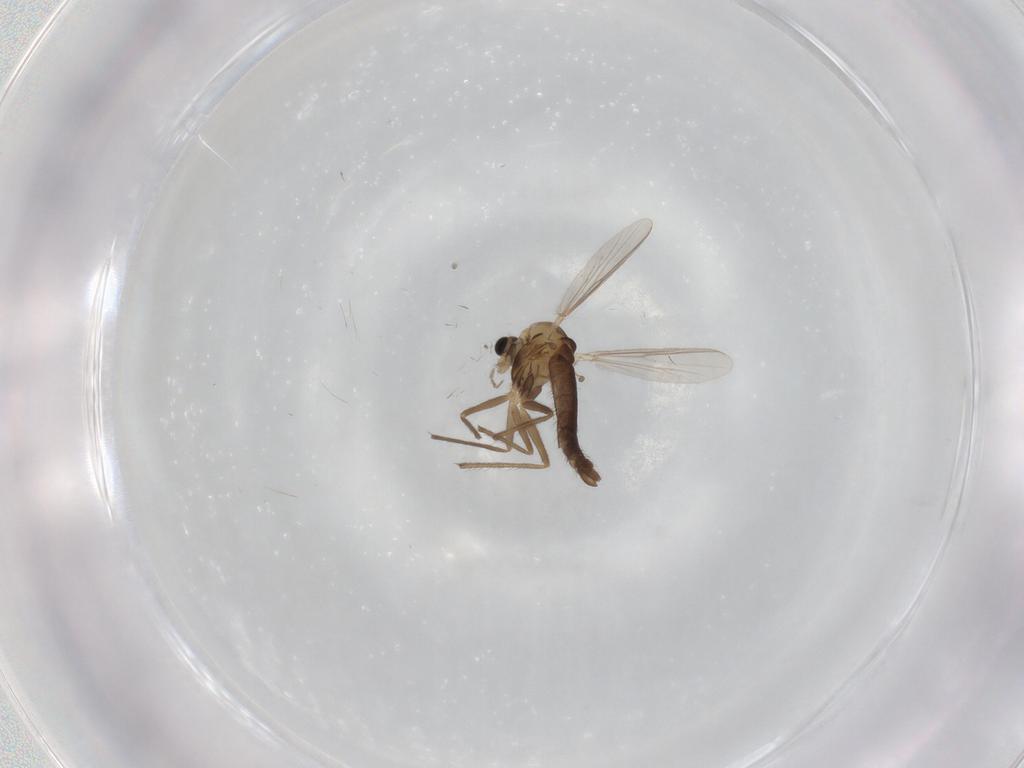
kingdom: Animalia
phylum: Arthropoda
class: Insecta
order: Diptera
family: Chironomidae
